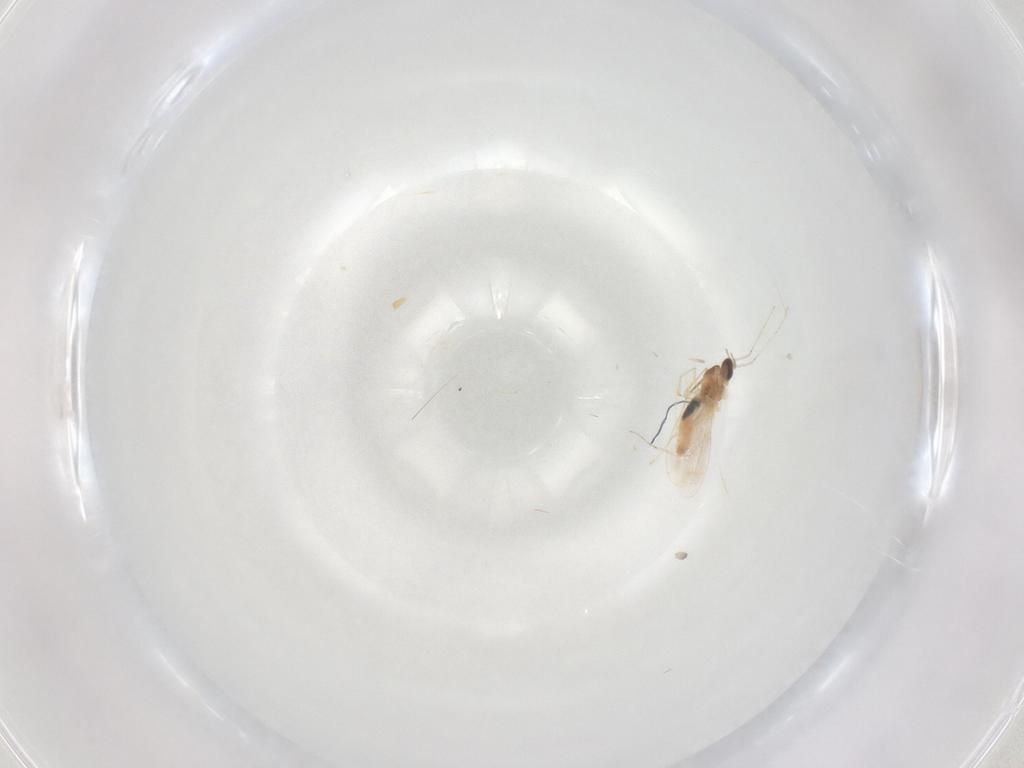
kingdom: Animalia
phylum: Arthropoda
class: Insecta
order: Diptera
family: Cecidomyiidae
